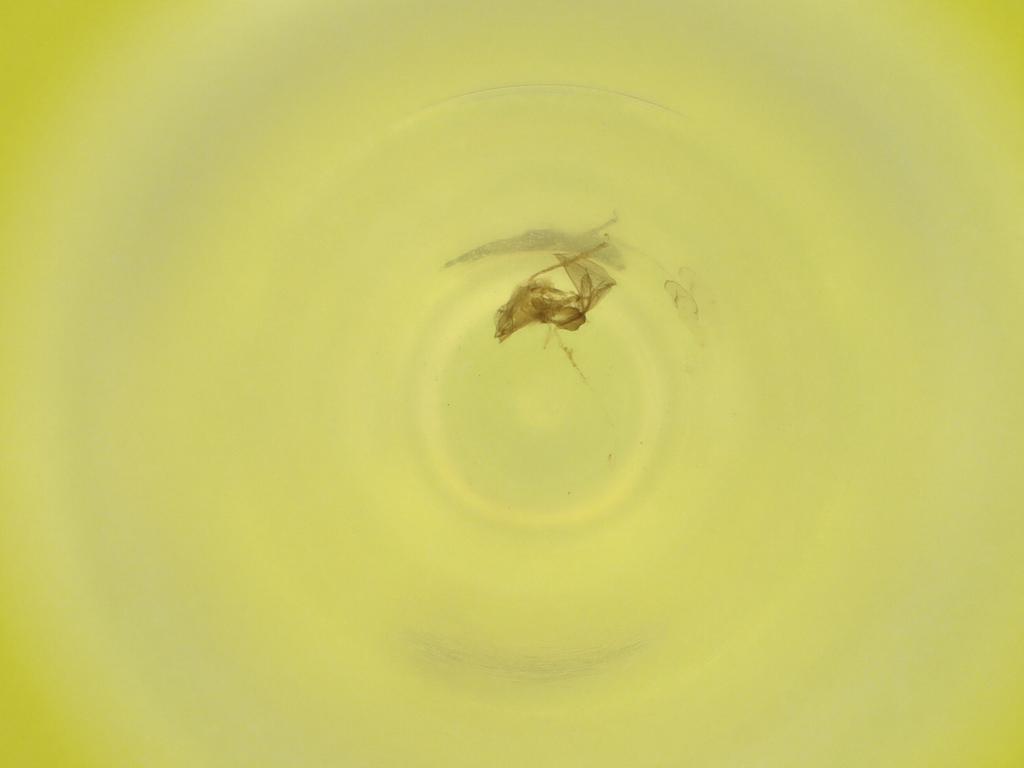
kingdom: Animalia
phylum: Arthropoda
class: Insecta
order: Diptera
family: Cecidomyiidae
